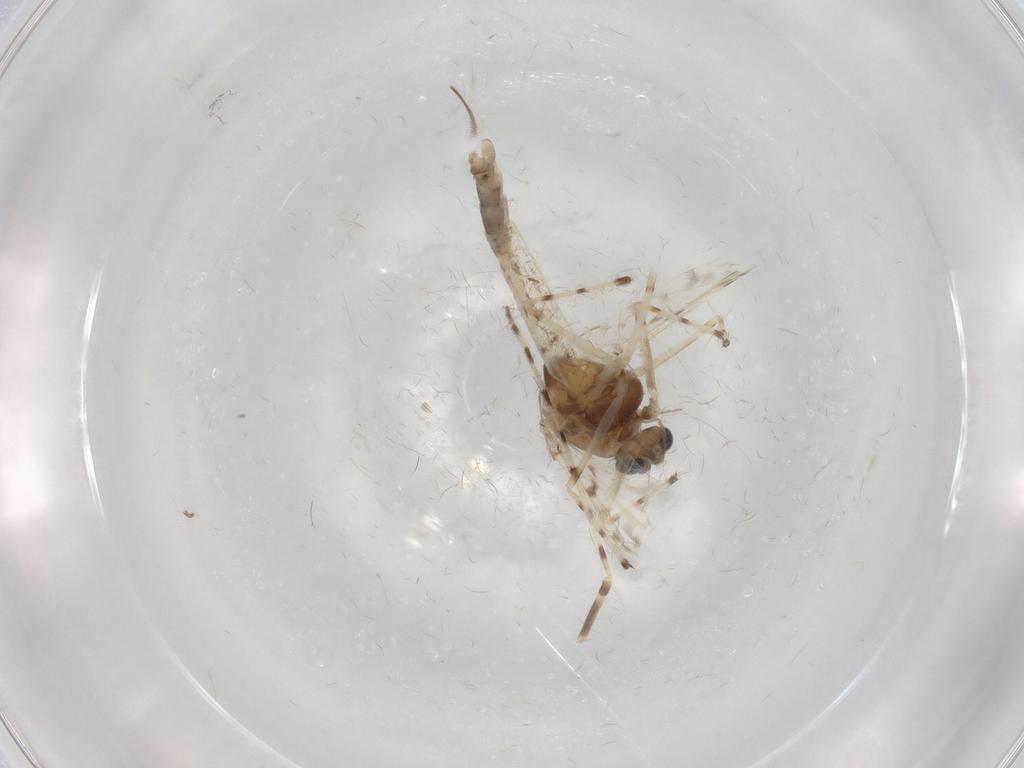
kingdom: Animalia
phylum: Arthropoda
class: Insecta
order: Diptera
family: Chironomidae
